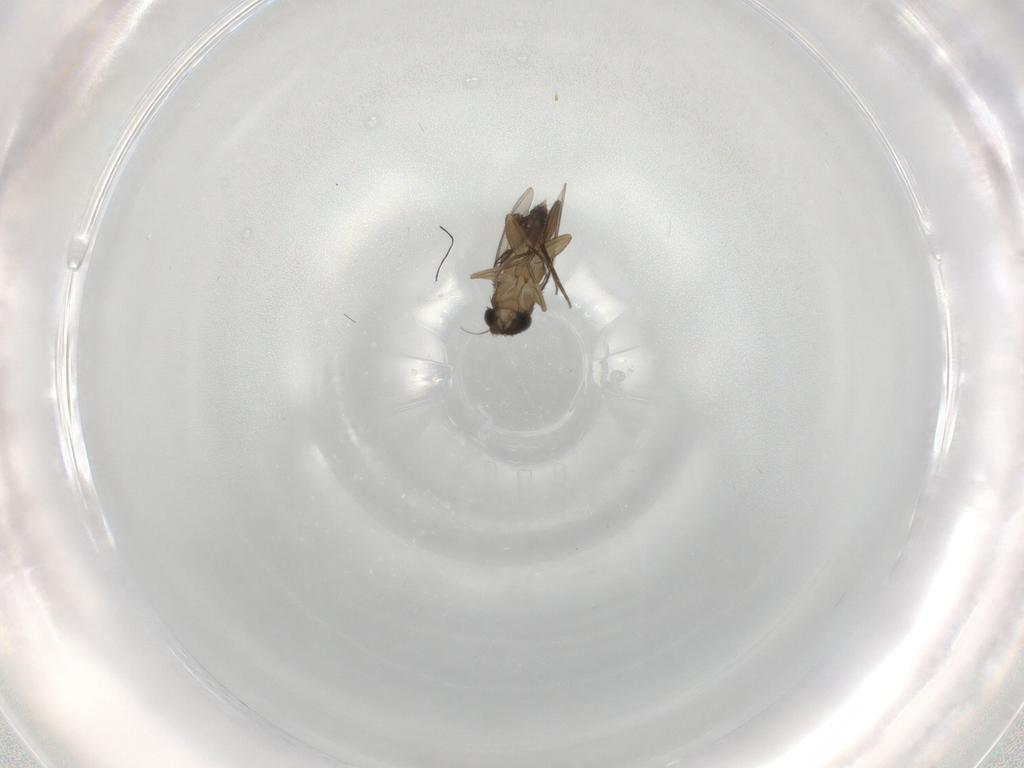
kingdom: Animalia
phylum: Arthropoda
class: Insecta
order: Diptera
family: Phoridae
